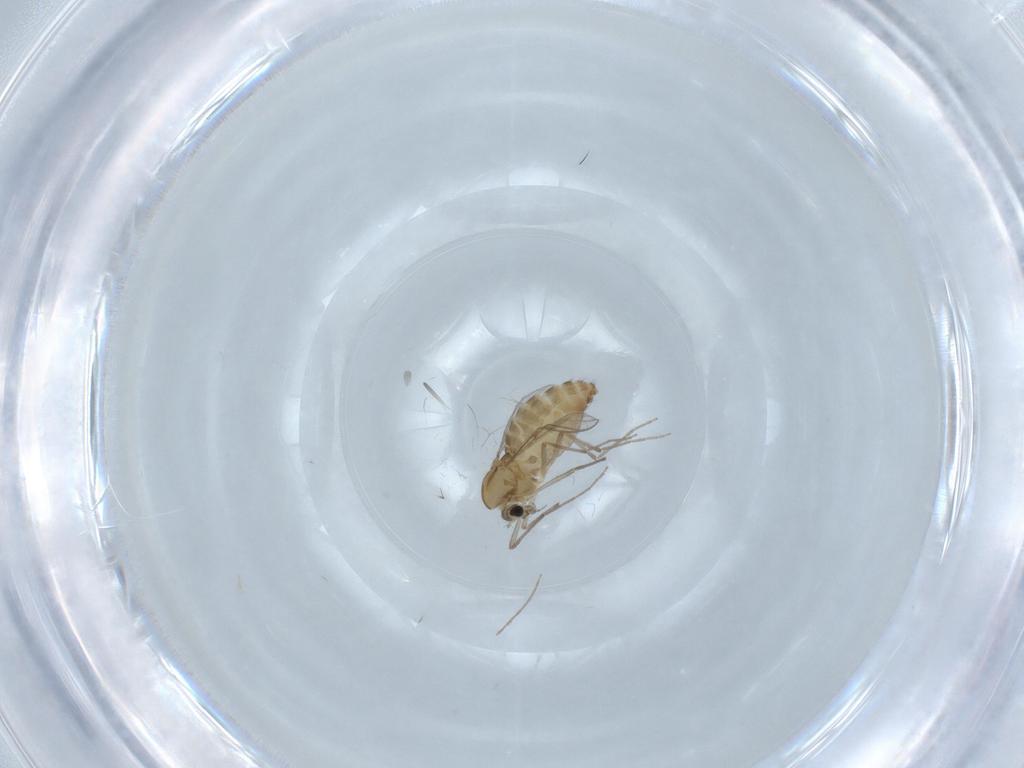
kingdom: Animalia
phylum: Arthropoda
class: Insecta
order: Diptera
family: Chironomidae
